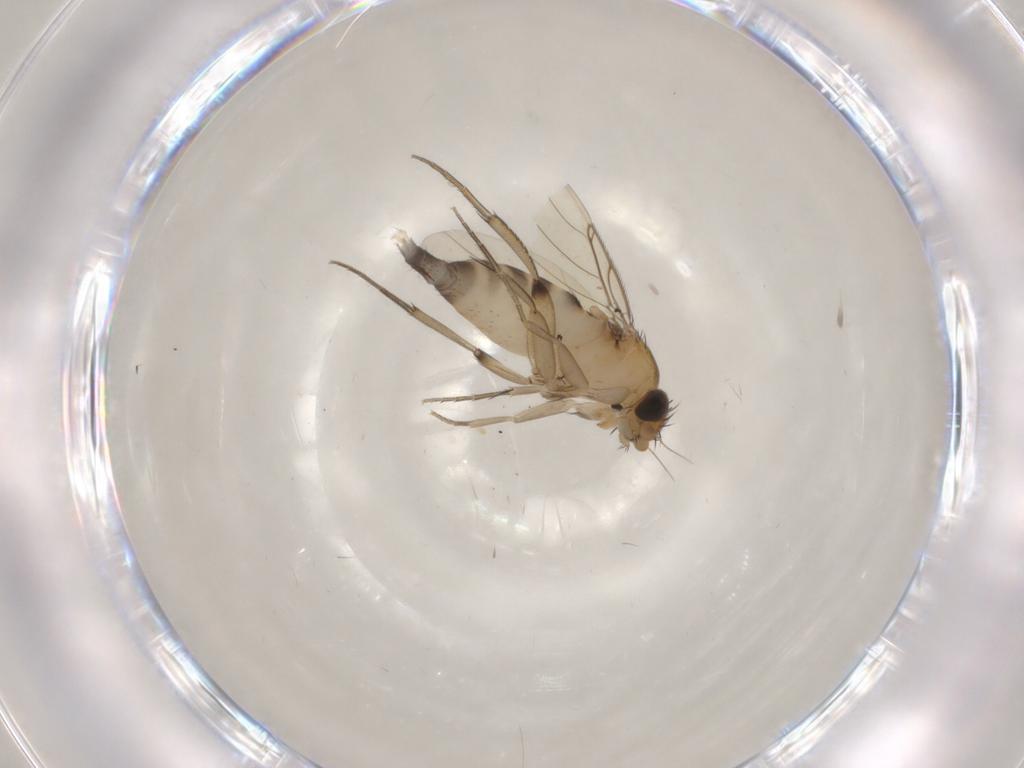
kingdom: Animalia
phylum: Arthropoda
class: Insecta
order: Diptera
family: Phoridae
